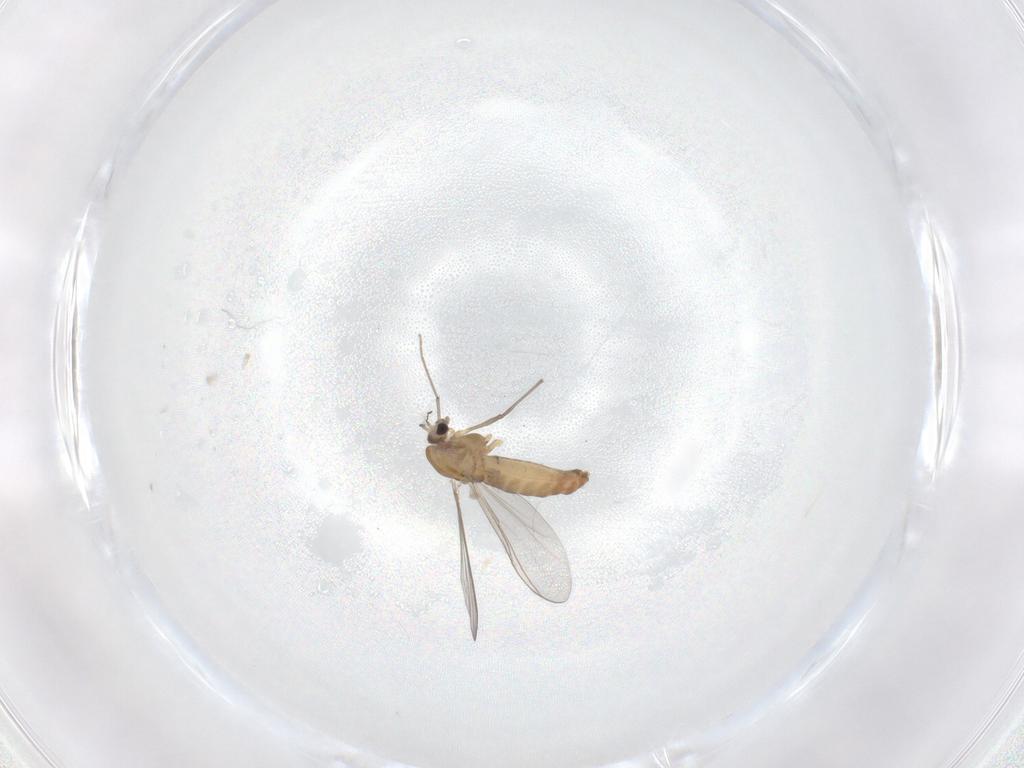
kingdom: Animalia
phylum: Arthropoda
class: Insecta
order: Diptera
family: Chironomidae
